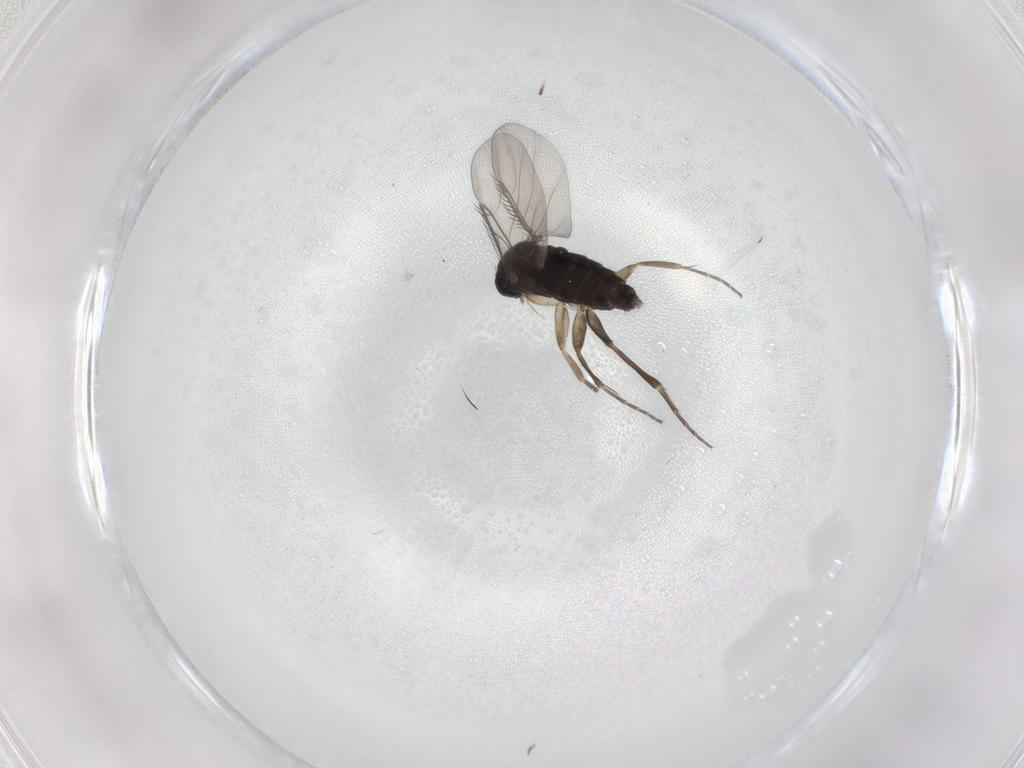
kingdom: Animalia
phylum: Arthropoda
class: Insecta
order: Diptera
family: Phoridae
